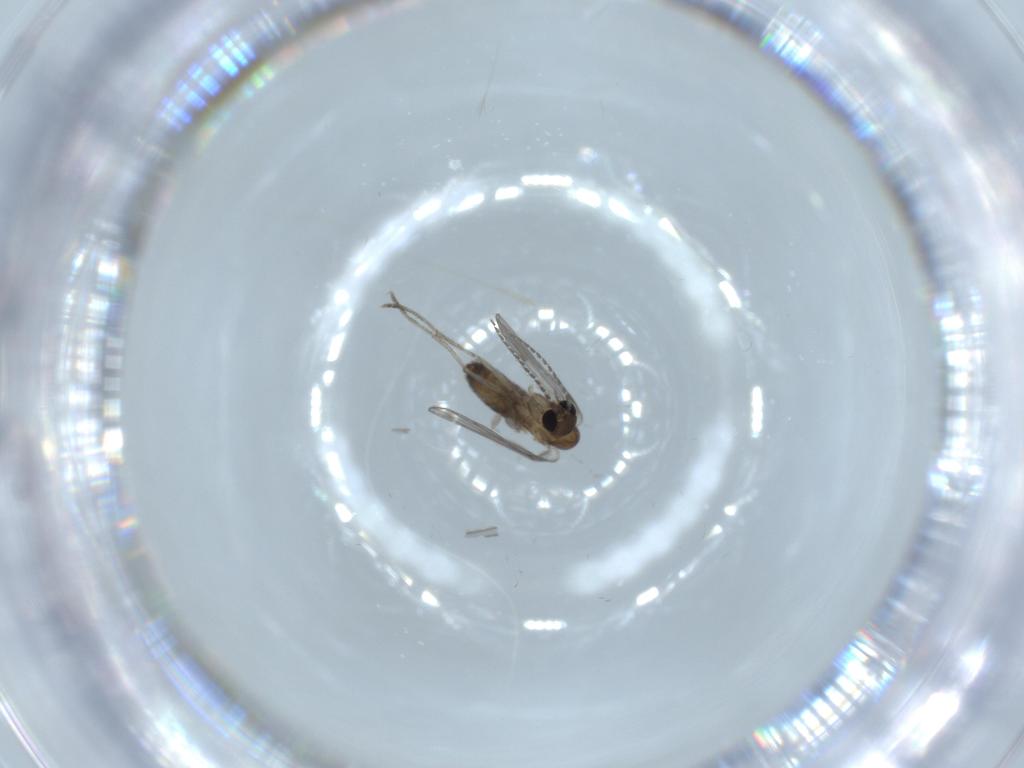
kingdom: Animalia
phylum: Arthropoda
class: Insecta
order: Diptera
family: Psychodidae
